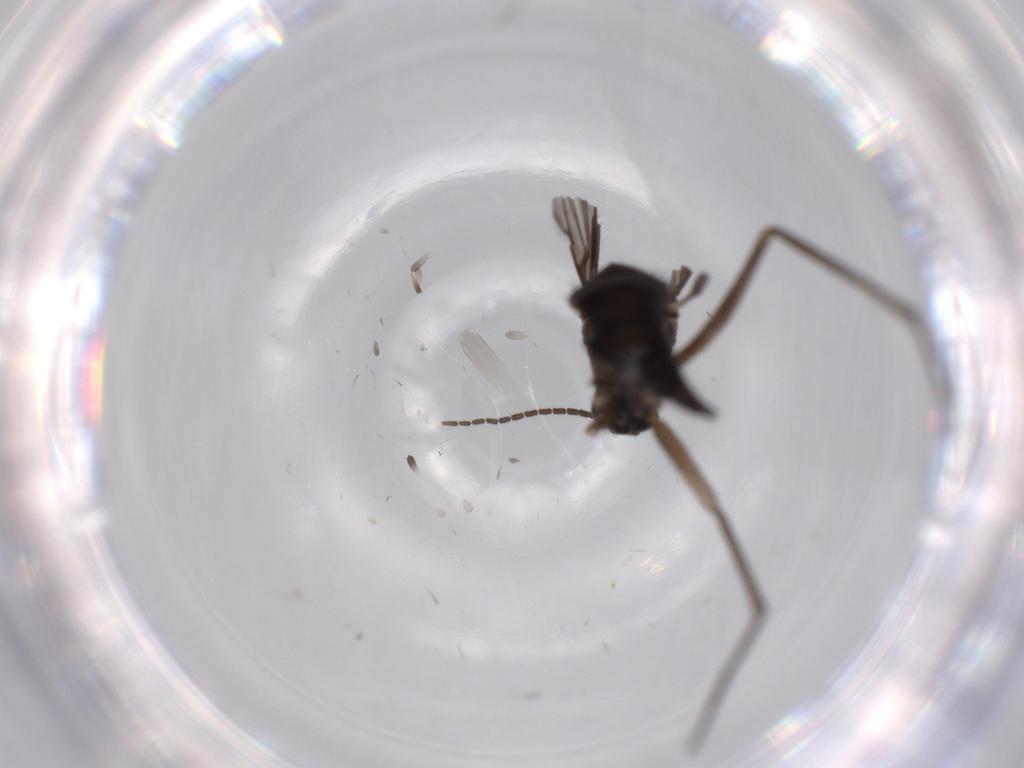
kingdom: Animalia
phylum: Arthropoda
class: Insecta
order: Diptera
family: Sciaridae
